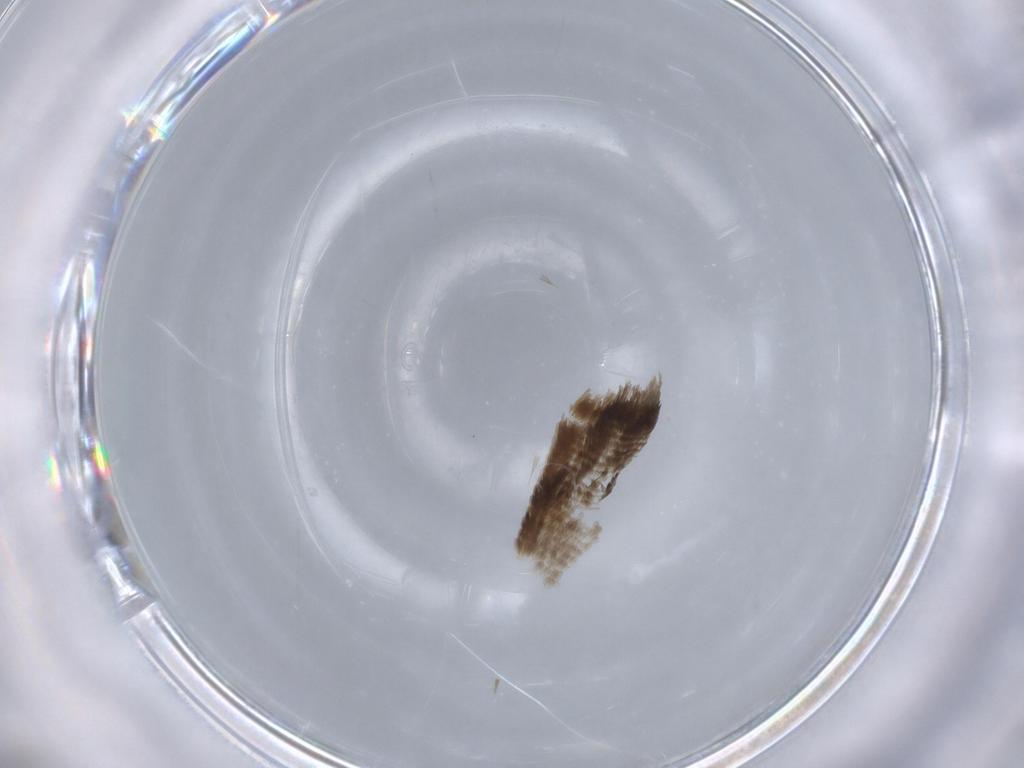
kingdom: Animalia
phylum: Arthropoda
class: Insecta
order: Lepidoptera
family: Nymphalidae
